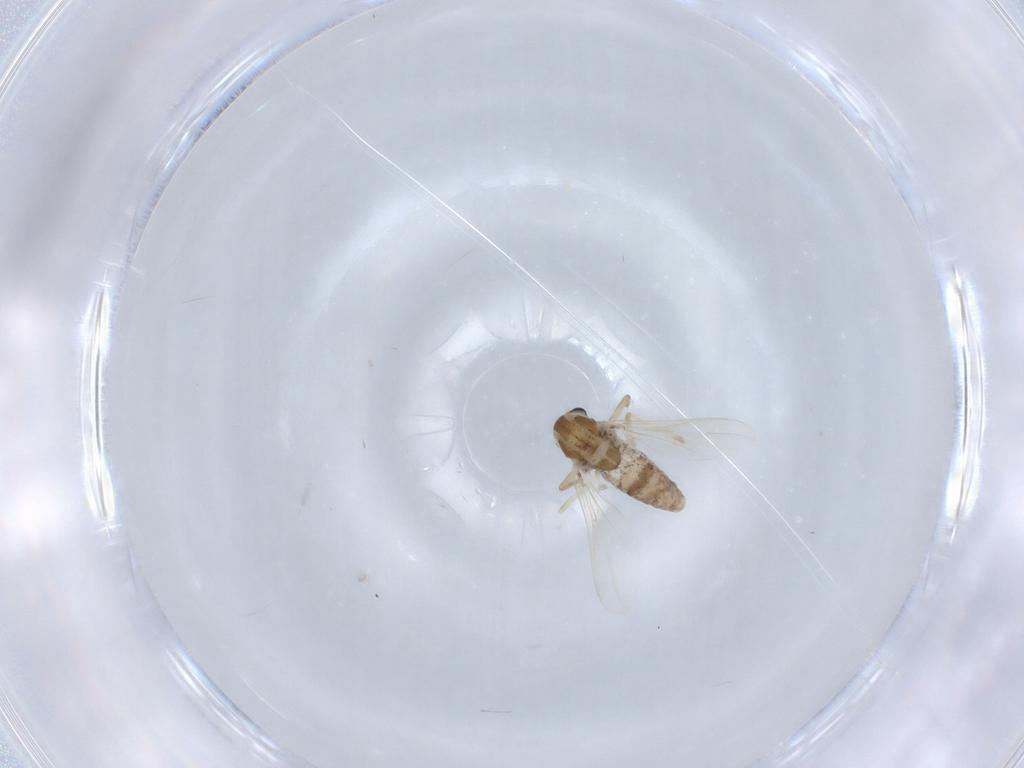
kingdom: Animalia
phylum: Arthropoda
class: Insecta
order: Diptera
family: Chironomidae
